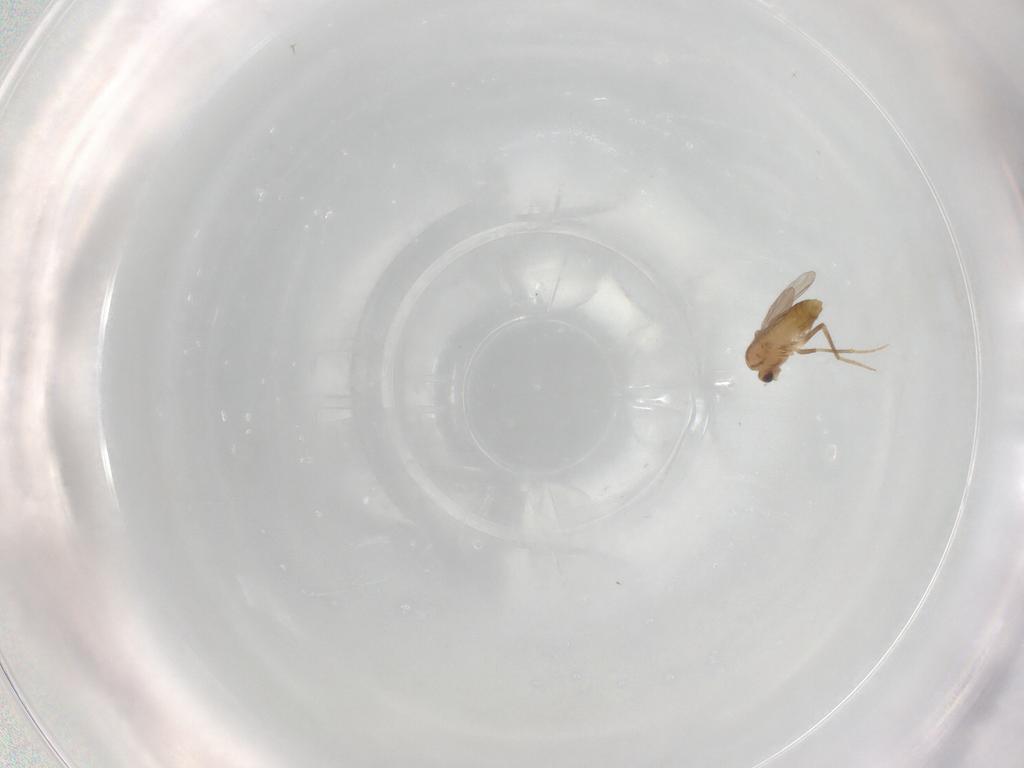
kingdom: Animalia
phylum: Arthropoda
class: Insecta
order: Diptera
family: Chironomidae
